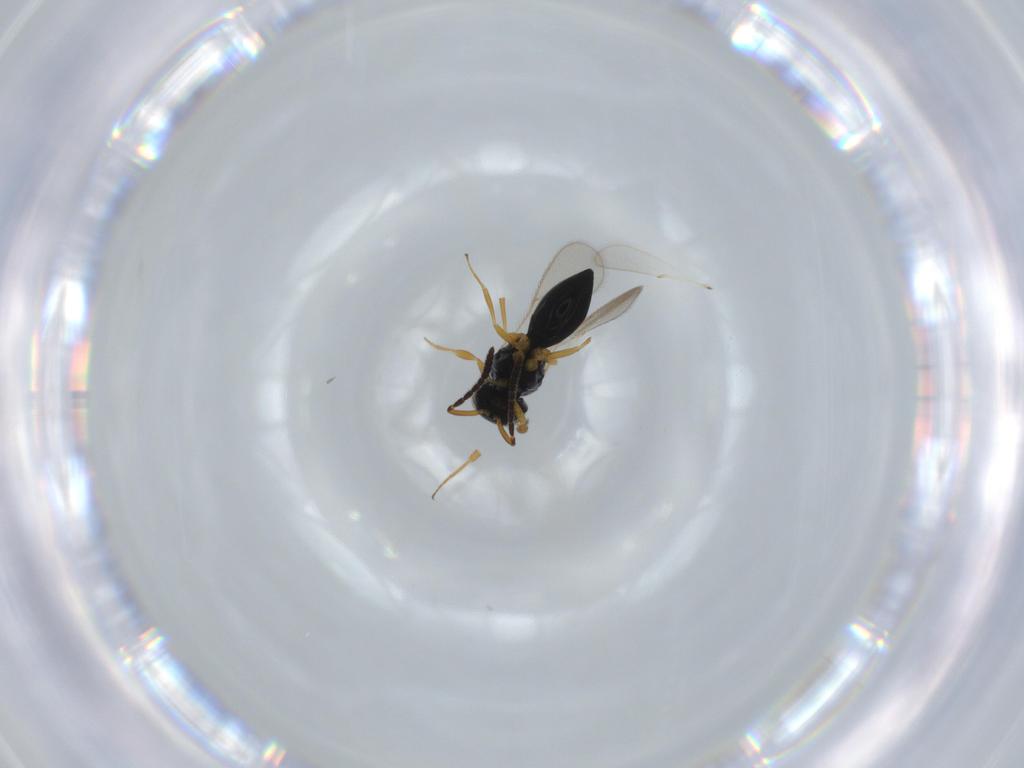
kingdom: Animalia
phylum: Arthropoda
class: Insecta
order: Hymenoptera
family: Scelionidae
